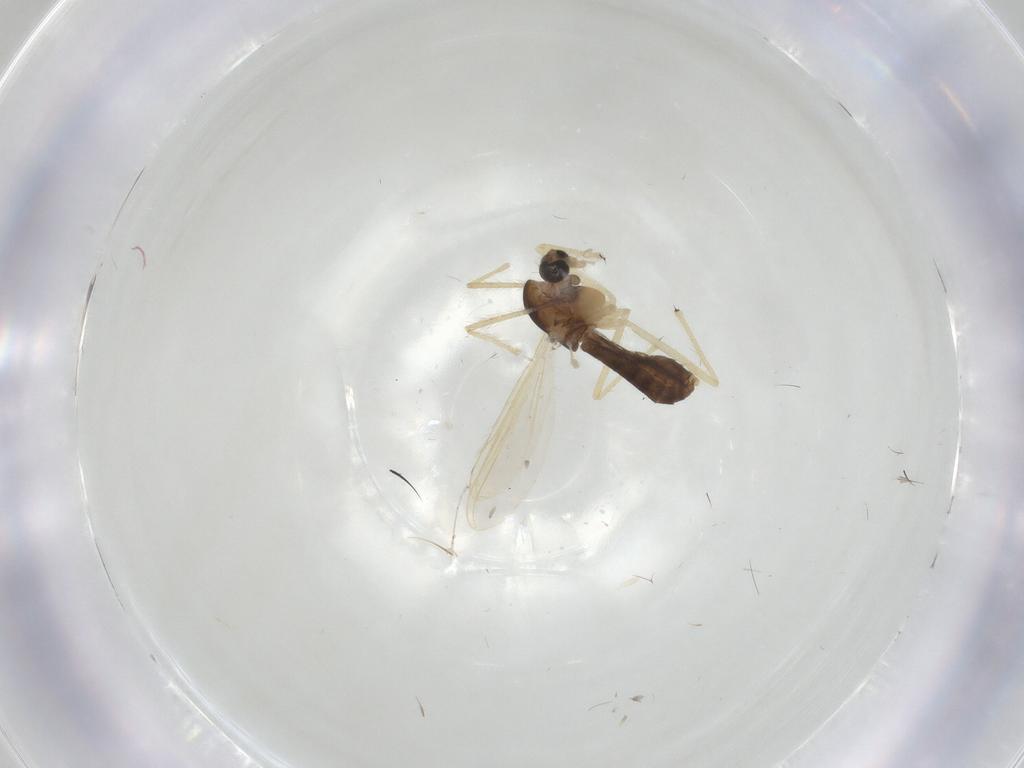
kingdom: Animalia
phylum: Arthropoda
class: Insecta
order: Diptera
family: Chironomidae
